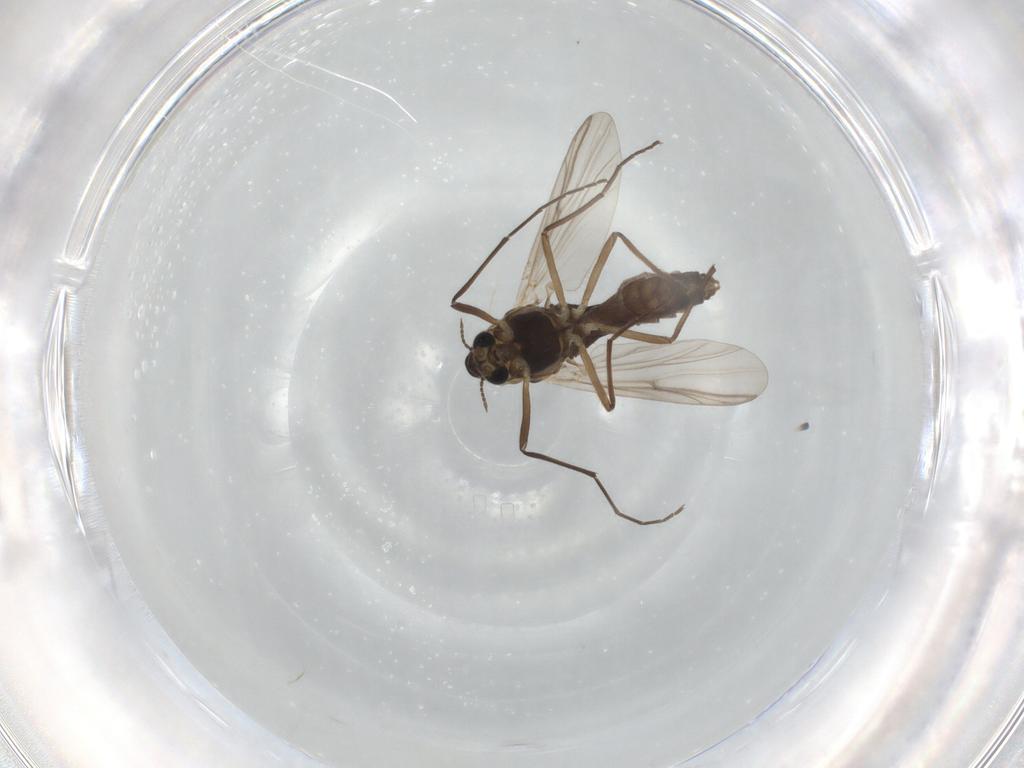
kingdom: Animalia
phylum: Arthropoda
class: Insecta
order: Diptera
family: Chironomidae
